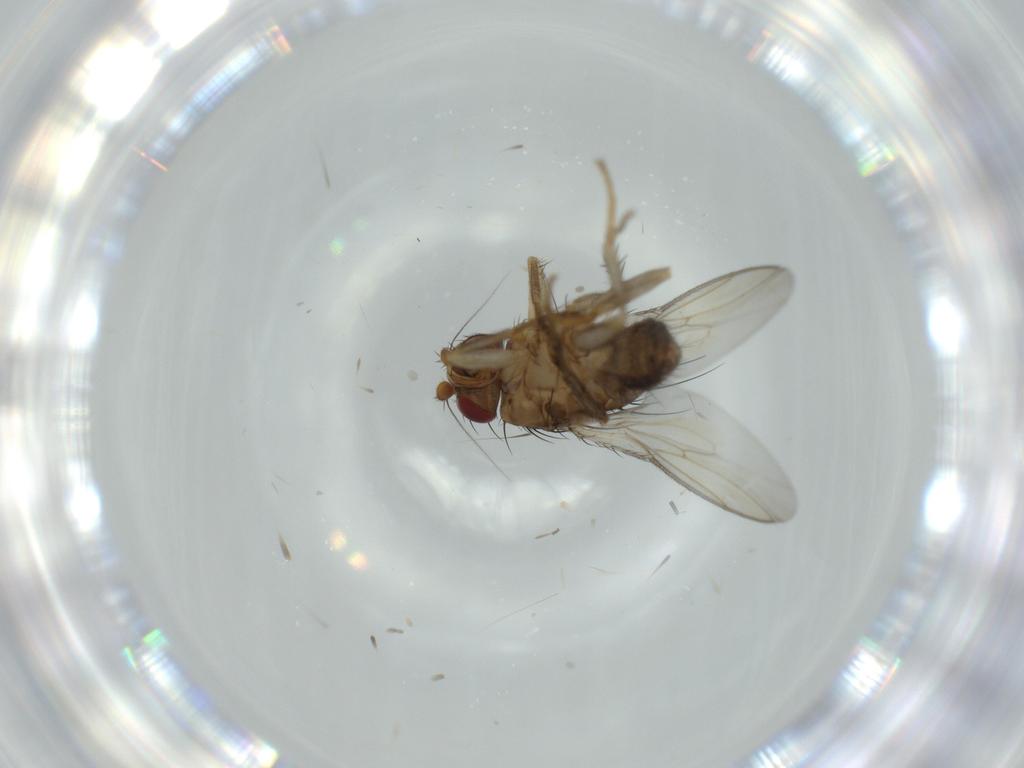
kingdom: Animalia
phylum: Arthropoda
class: Insecta
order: Diptera
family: Sphaeroceridae
